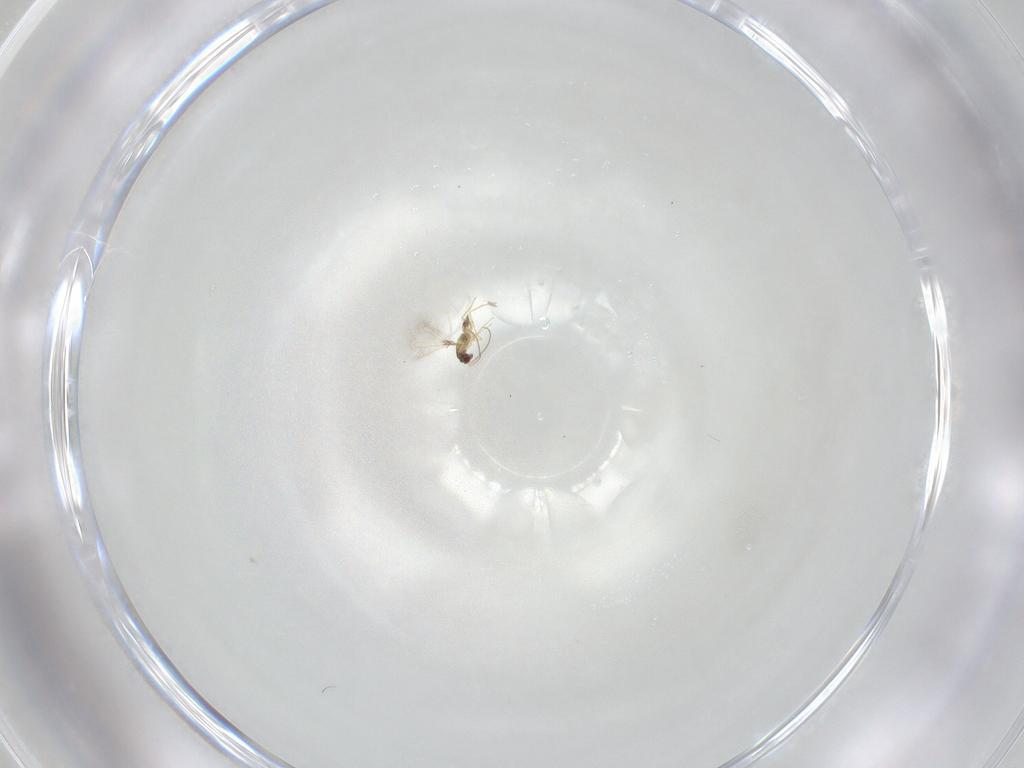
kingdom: Animalia
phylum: Arthropoda
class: Insecta
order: Hymenoptera
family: Mymaridae
